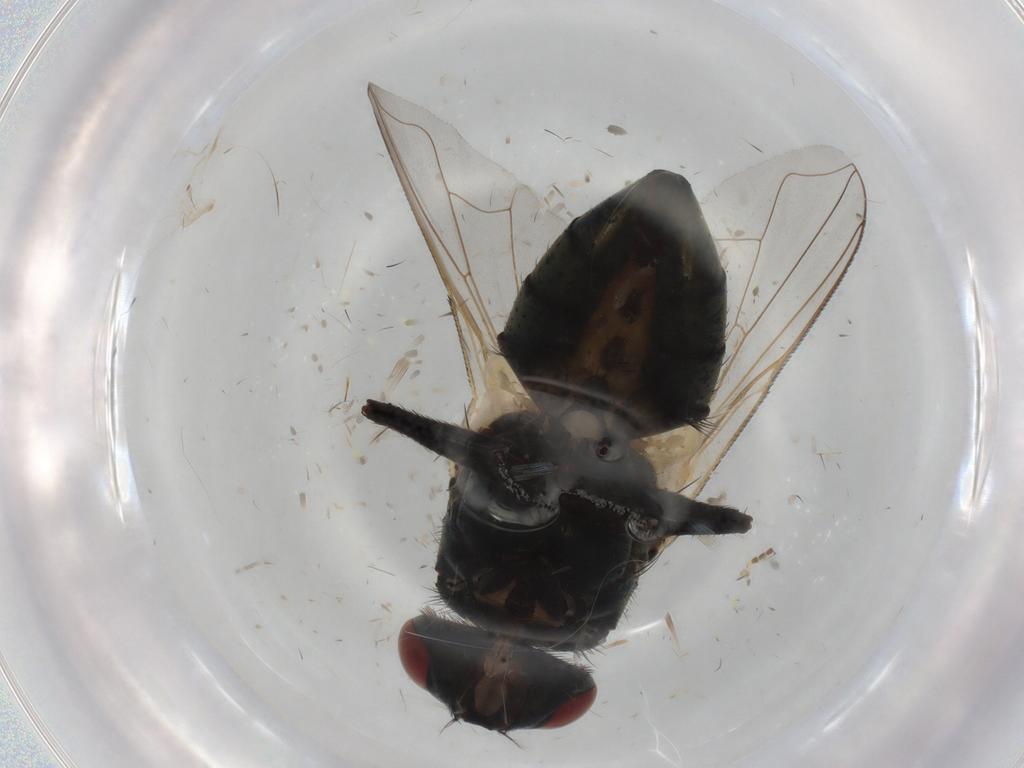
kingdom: Animalia
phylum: Arthropoda
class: Insecta
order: Diptera
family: Muscidae
